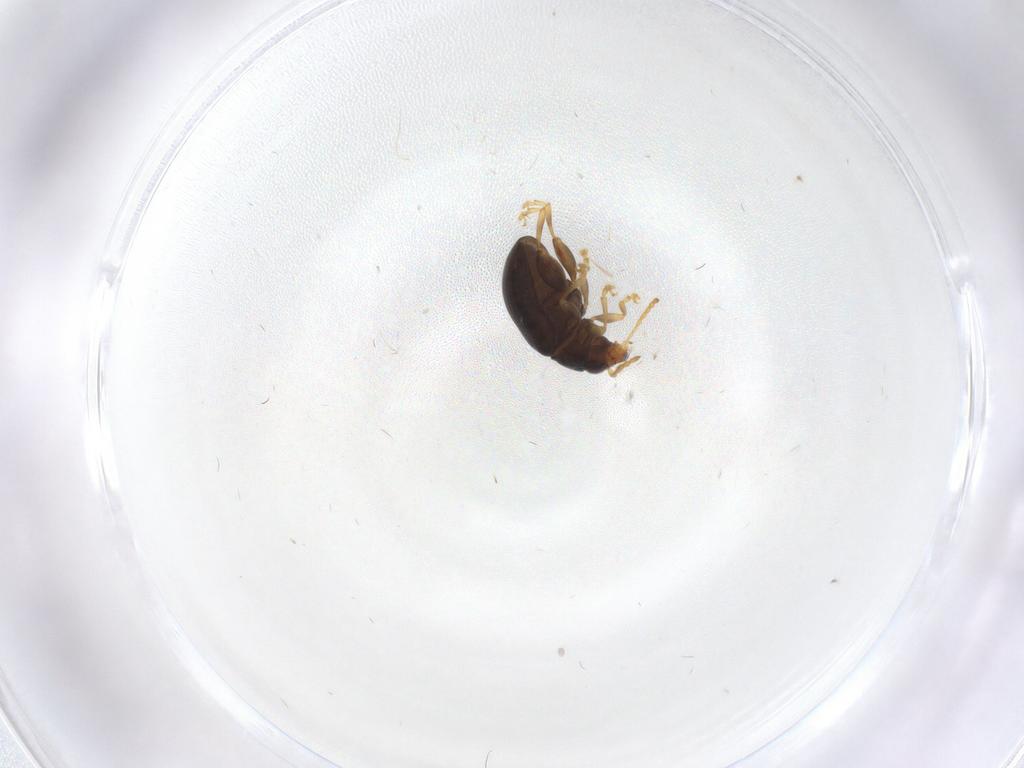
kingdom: Animalia
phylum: Arthropoda
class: Insecta
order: Coleoptera
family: Chrysomelidae
